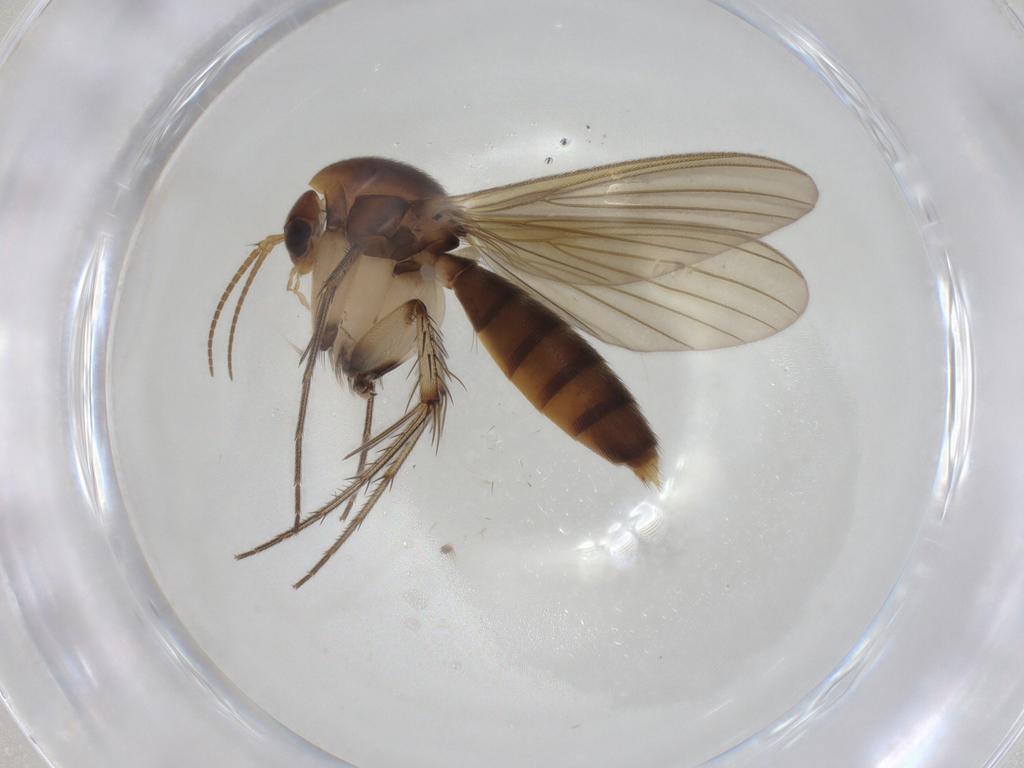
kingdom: Animalia
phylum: Arthropoda
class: Insecta
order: Diptera
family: Mycetophilidae
